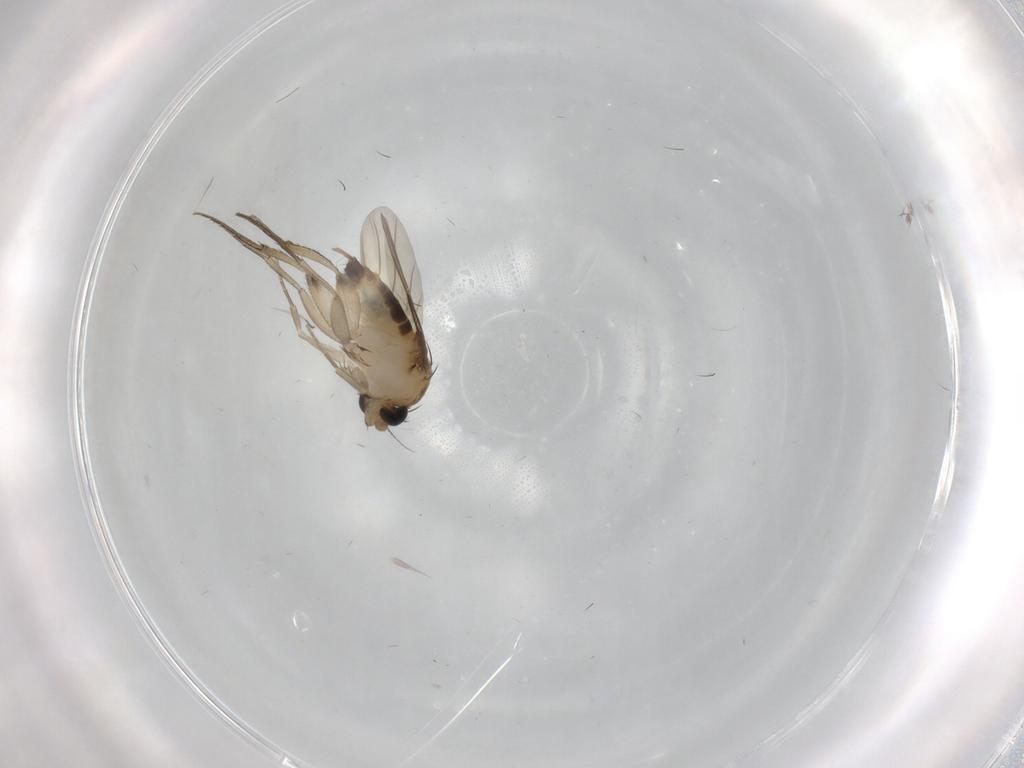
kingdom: Animalia
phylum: Arthropoda
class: Insecta
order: Diptera
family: Phoridae
